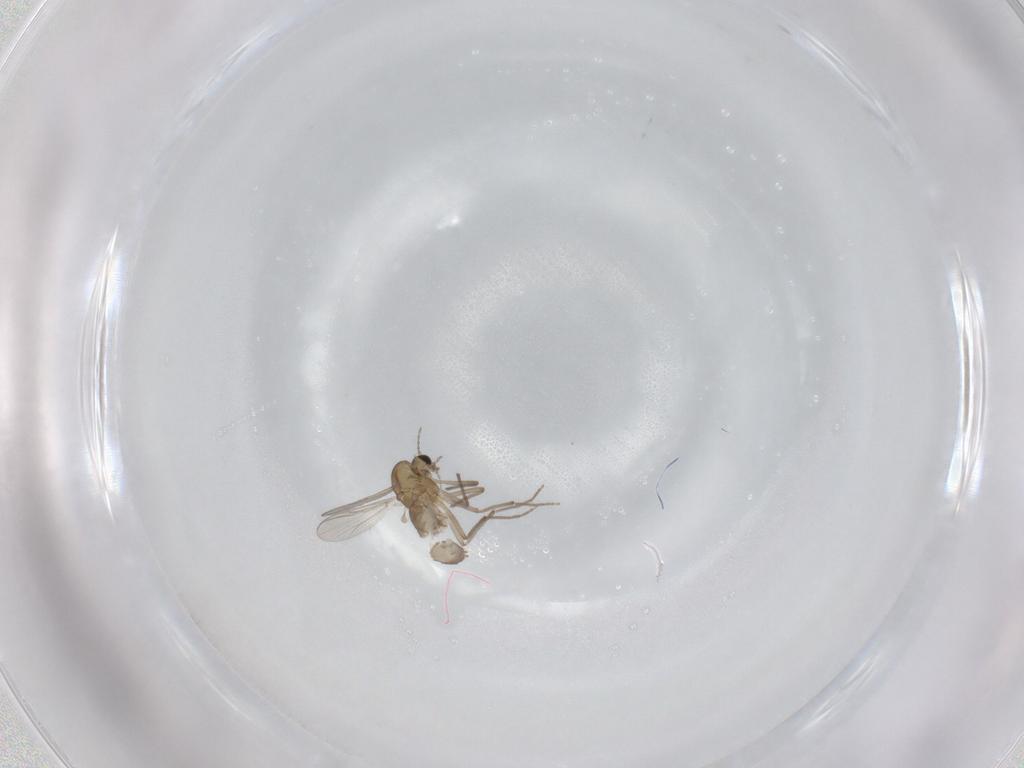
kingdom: Animalia
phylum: Arthropoda
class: Insecta
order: Diptera
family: Chironomidae
